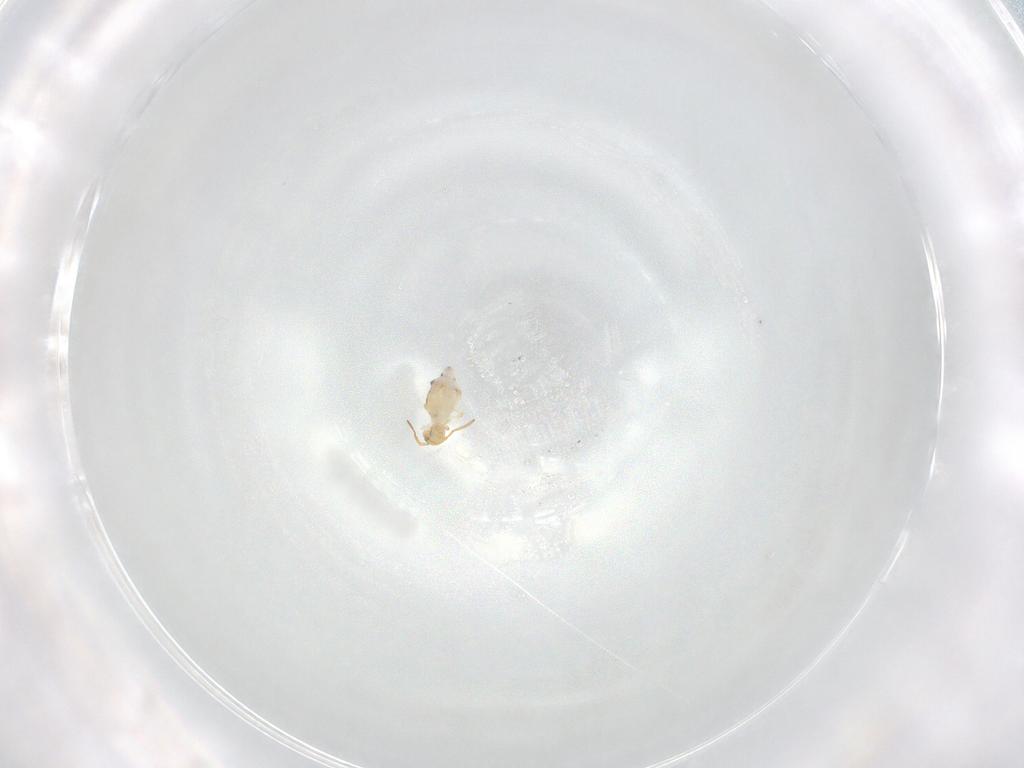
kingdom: Animalia
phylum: Arthropoda
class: Collembola
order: Symphypleona
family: Bourletiellidae
